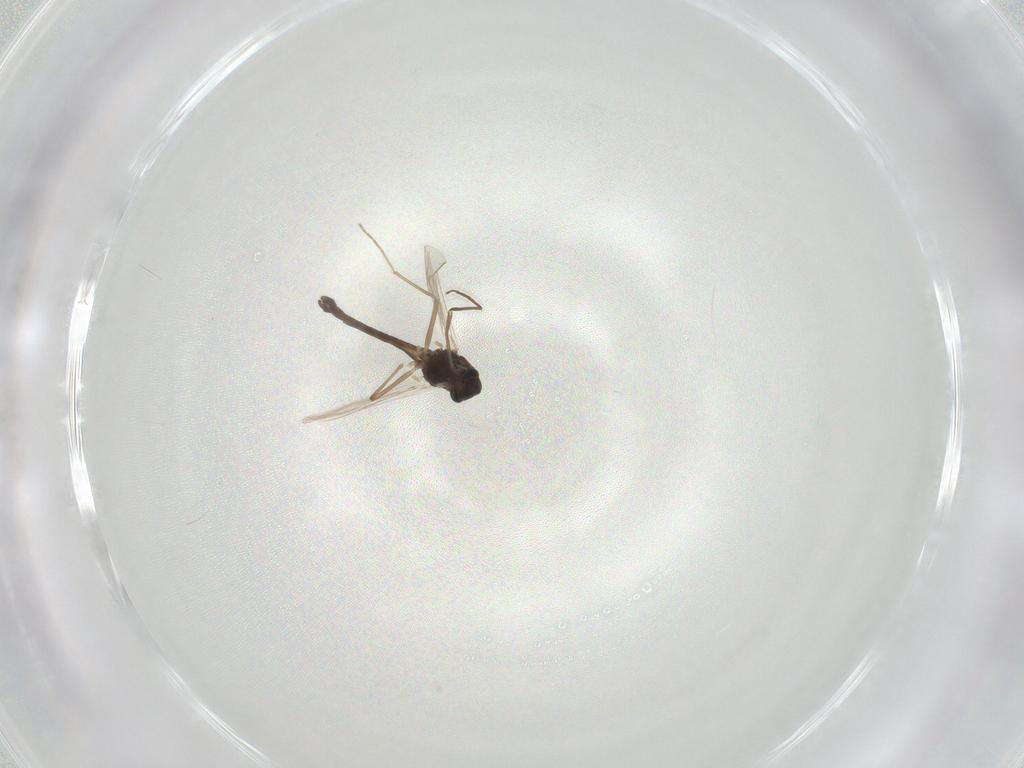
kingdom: Animalia
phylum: Arthropoda
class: Insecta
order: Diptera
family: Chironomidae
